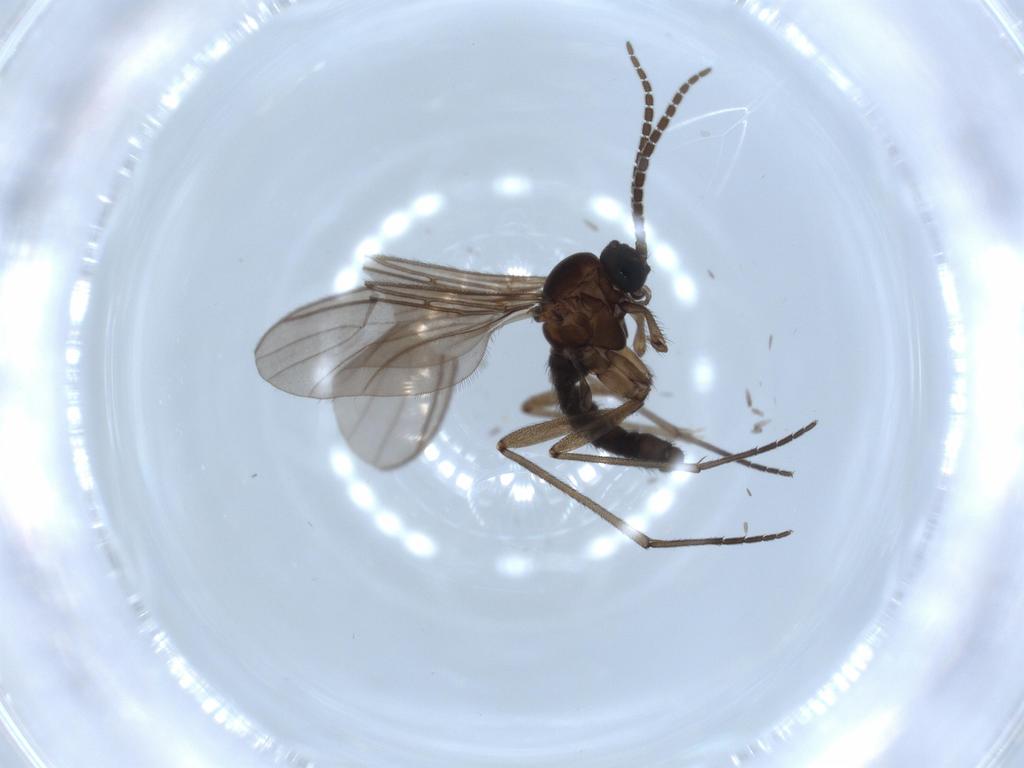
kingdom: Animalia
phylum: Arthropoda
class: Insecta
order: Diptera
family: Sciaridae
